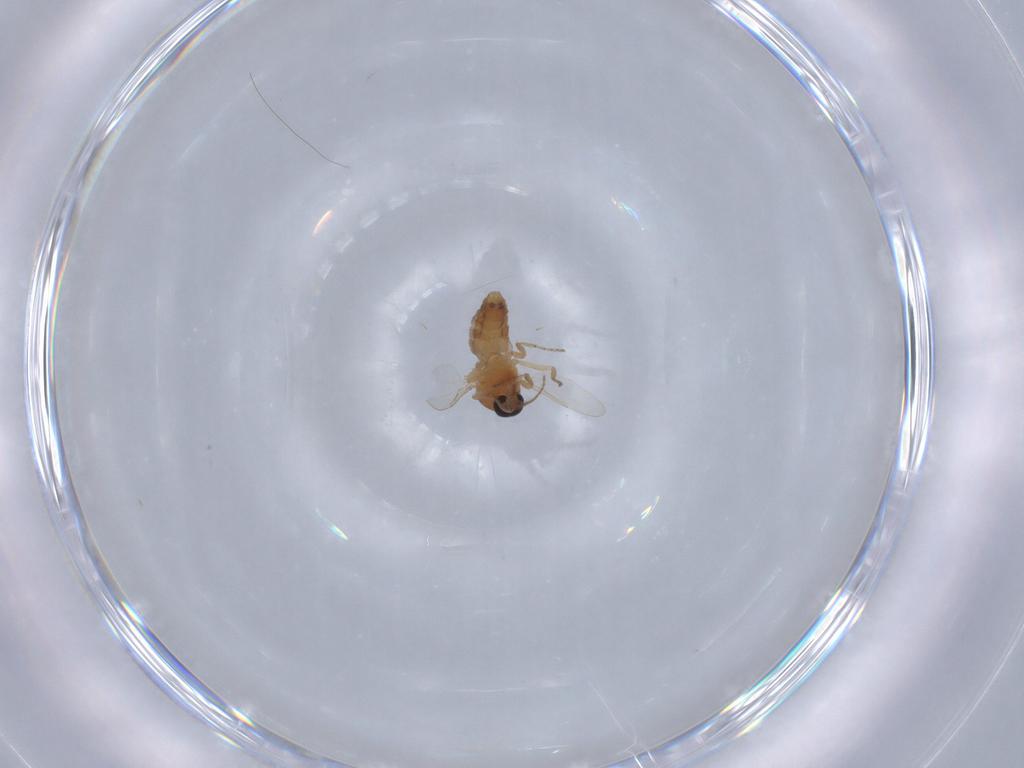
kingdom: Animalia
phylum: Arthropoda
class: Insecta
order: Diptera
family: Ceratopogonidae
